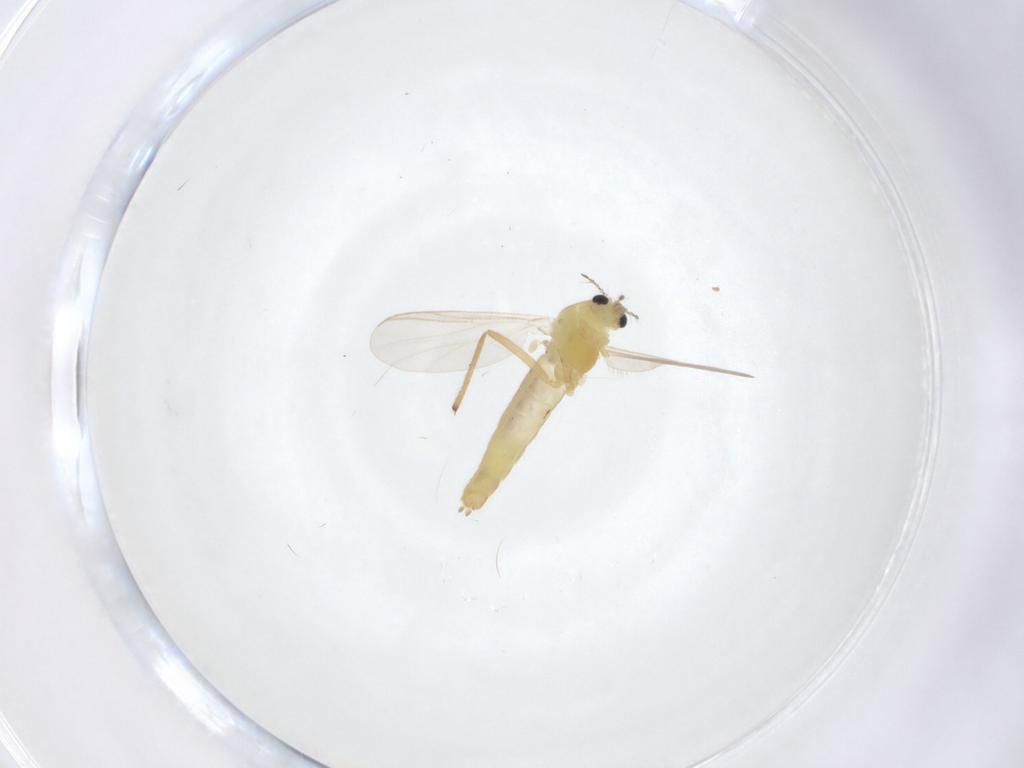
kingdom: Animalia
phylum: Arthropoda
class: Insecta
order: Diptera
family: Chironomidae
